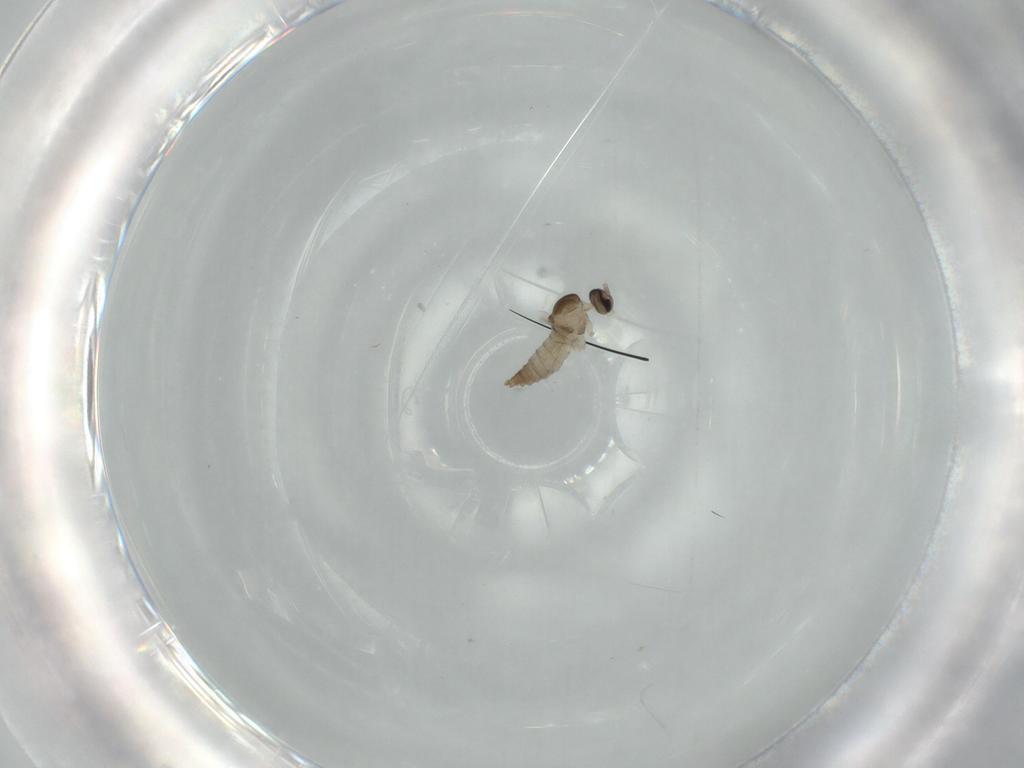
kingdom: Animalia
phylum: Arthropoda
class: Insecta
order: Diptera
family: Cecidomyiidae
